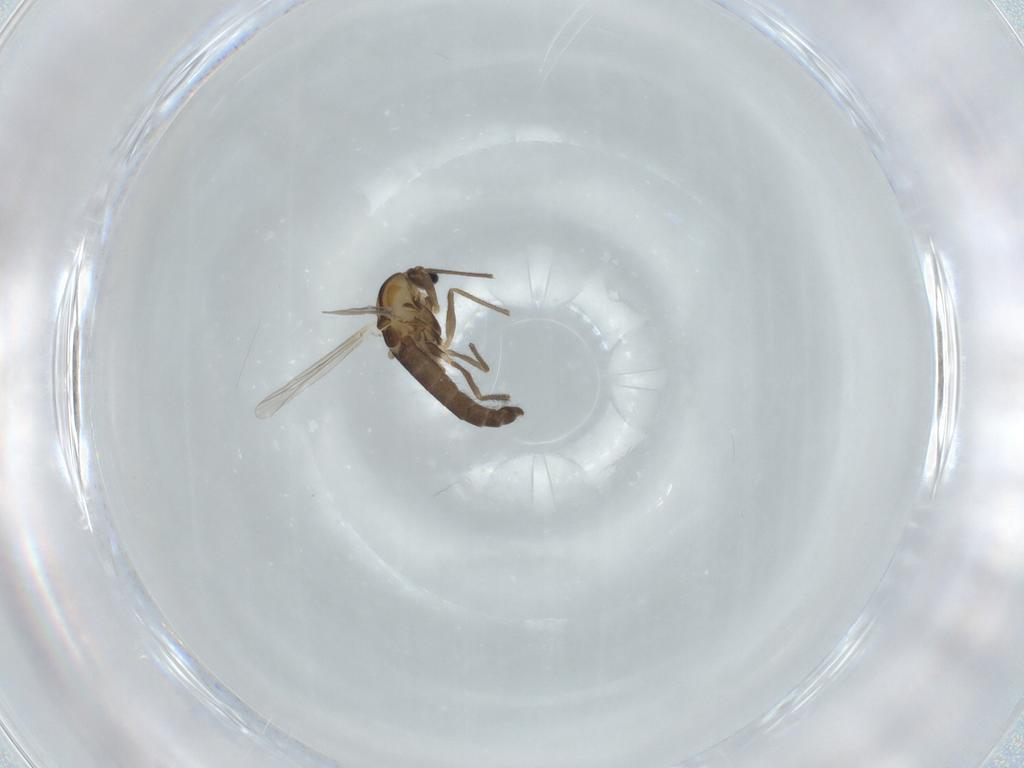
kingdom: Animalia
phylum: Arthropoda
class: Insecta
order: Diptera
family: Chironomidae
